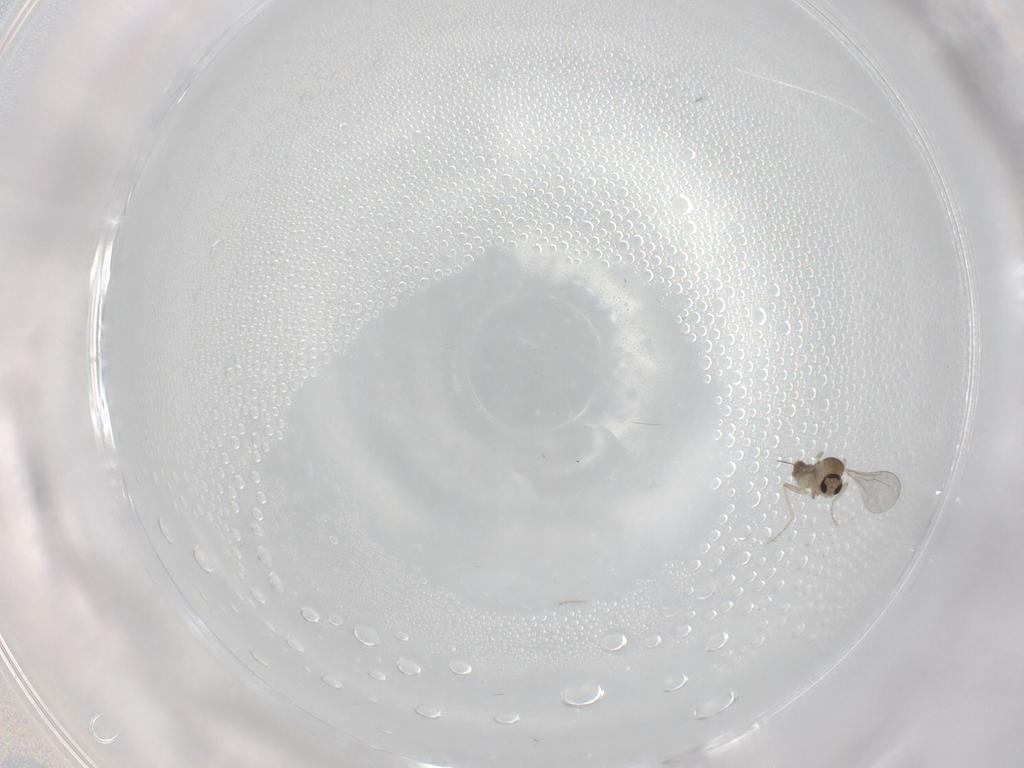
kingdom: Animalia
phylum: Arthropoda
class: Insecta
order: Diptera
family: Cecidomyiidae
